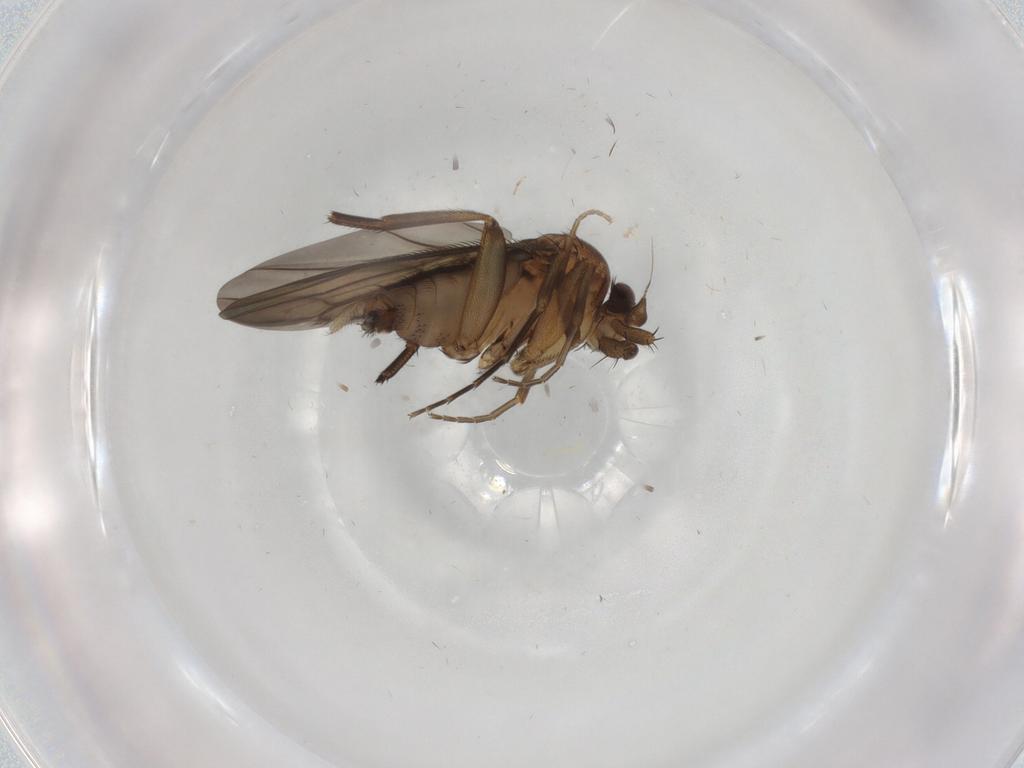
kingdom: Animalia
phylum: Arthropoda
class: Insecta
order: Diptera
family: Phoridae
